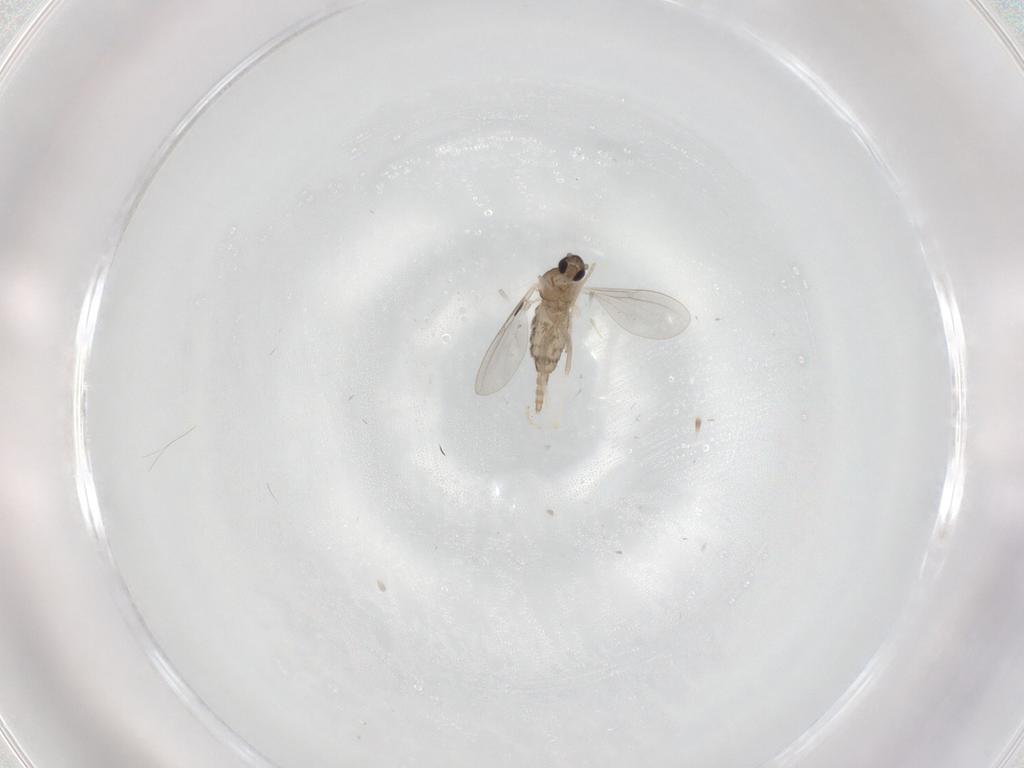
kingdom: Animalia
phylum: Arthropoda
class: Insecta
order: Diptera
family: Cecidomyiidae
